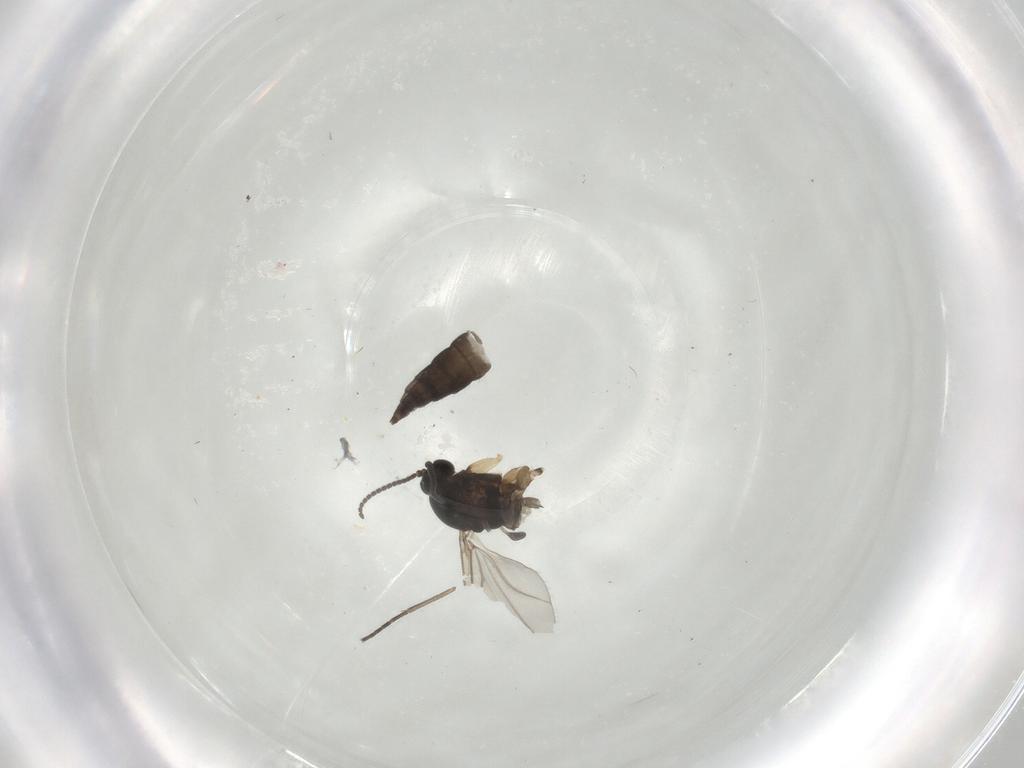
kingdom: Animalia
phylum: Arthropoda
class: Insecta
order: Diptera
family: Sciaridae
